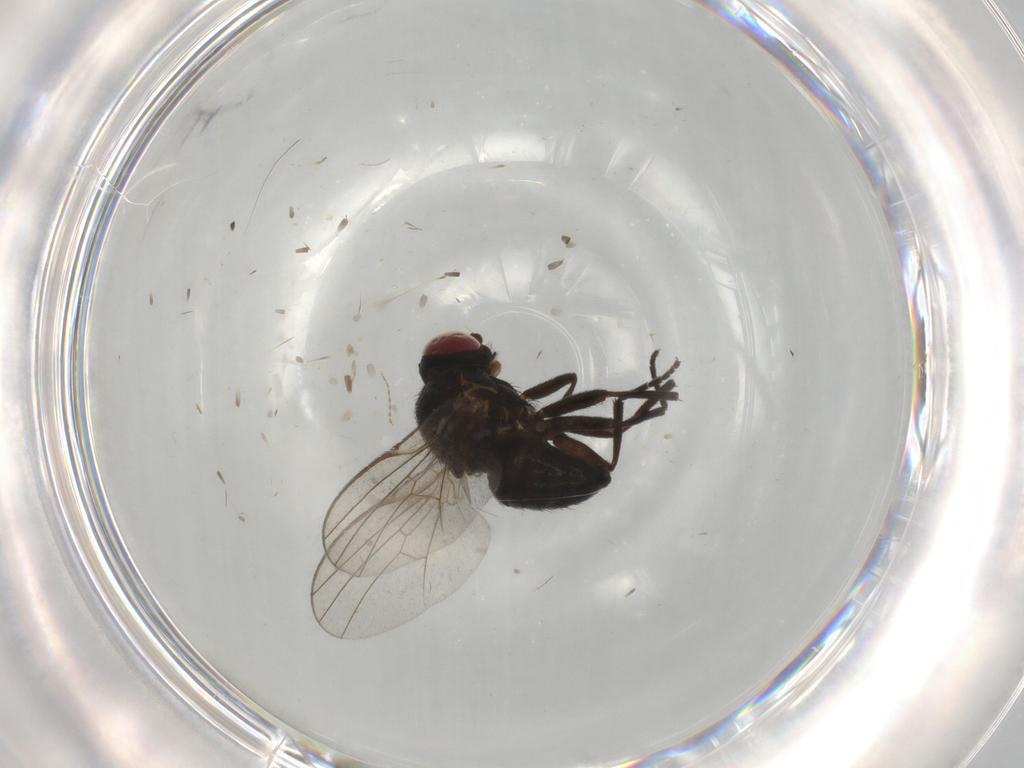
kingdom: Animalia
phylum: Arthropoda
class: Insecta
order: Diptera
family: Agromyzidae
